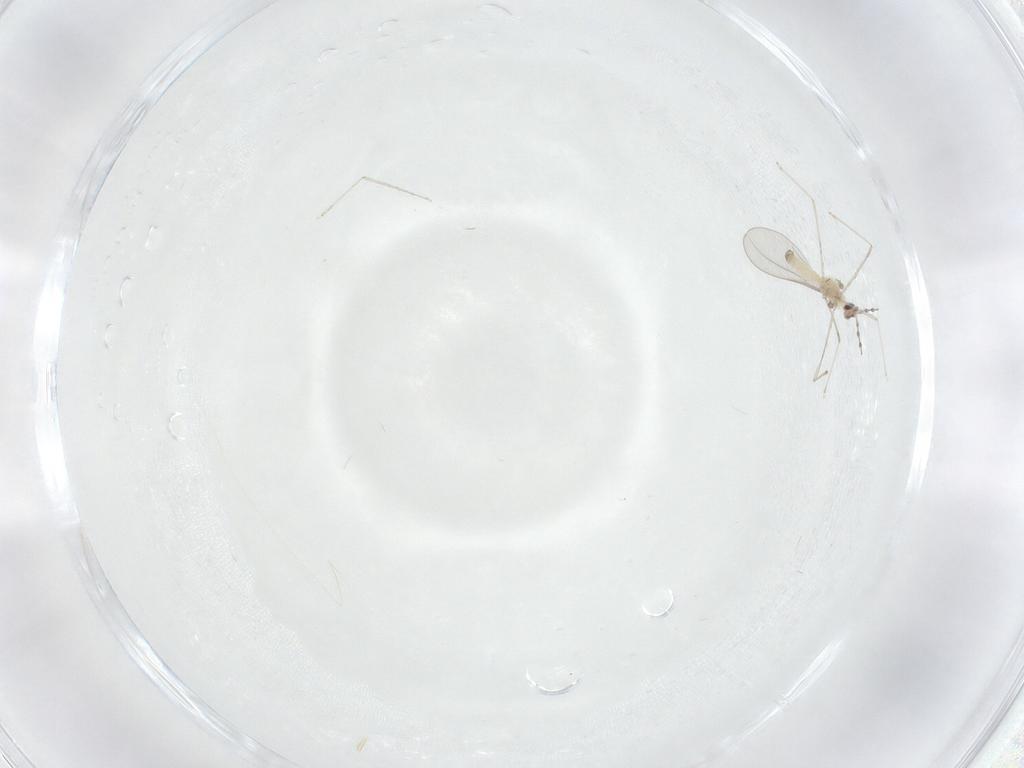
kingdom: Animalia
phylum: Arthropoda
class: Insecta
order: Diptera
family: Cecidomyiidae
